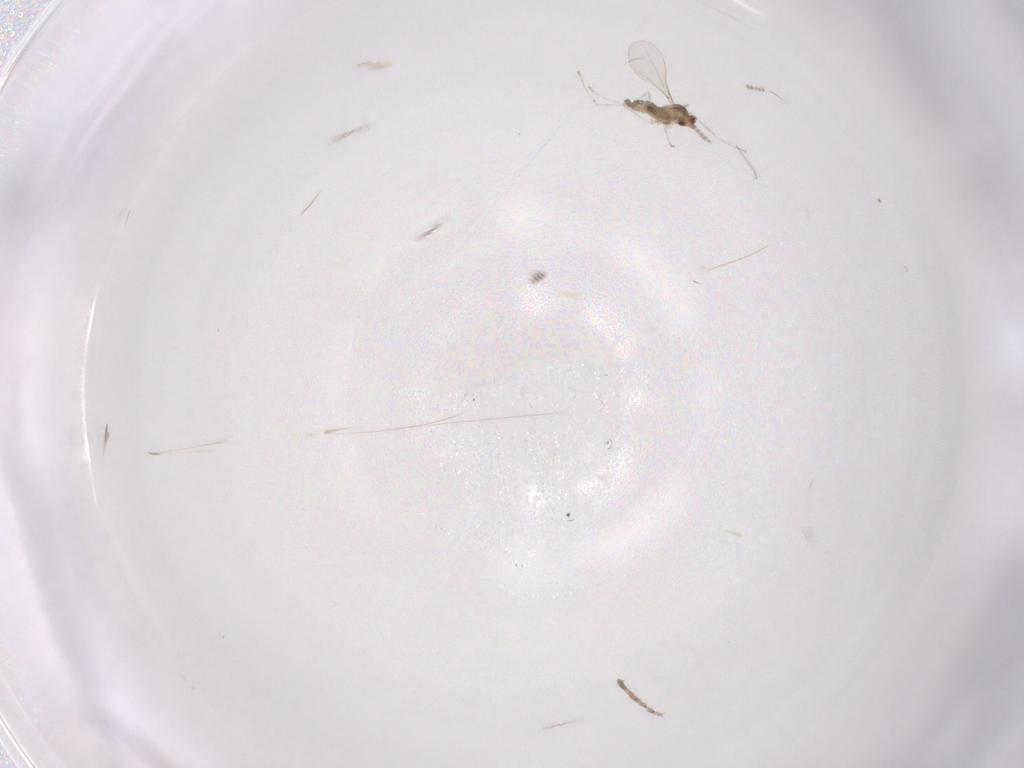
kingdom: Animalia
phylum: Arthropoda
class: Insecta
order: Diptera
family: Cecidomyiidae
